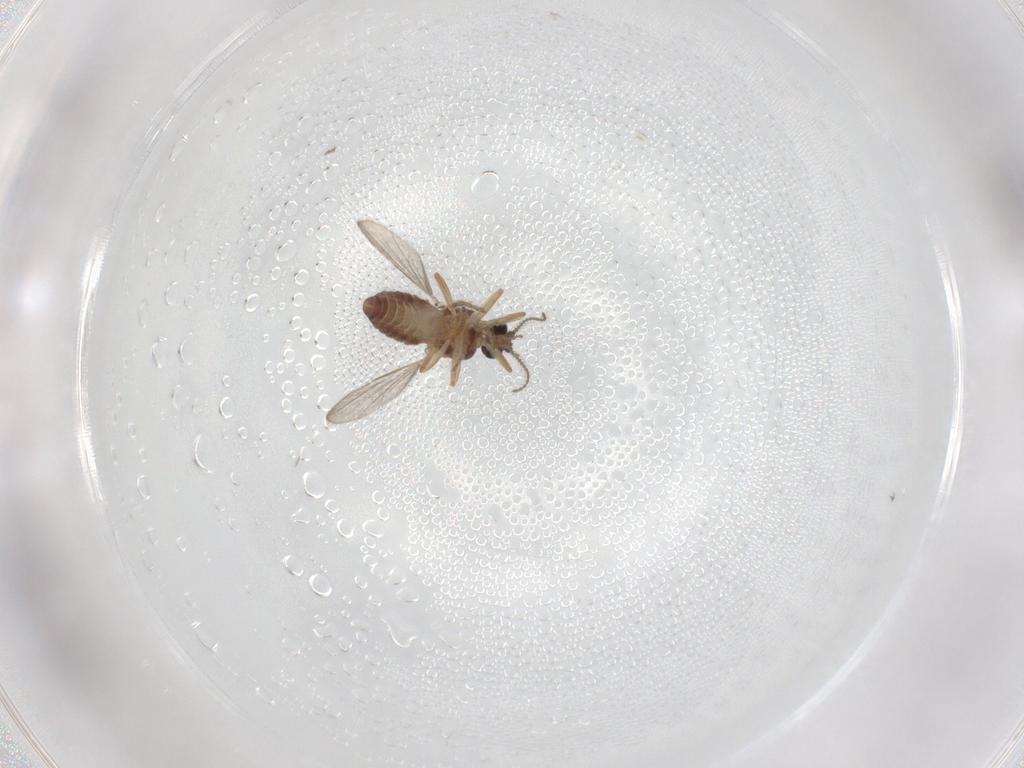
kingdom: Animalia
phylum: Arthropoda
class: Insecta
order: Diptera
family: Ceratopogonidae
